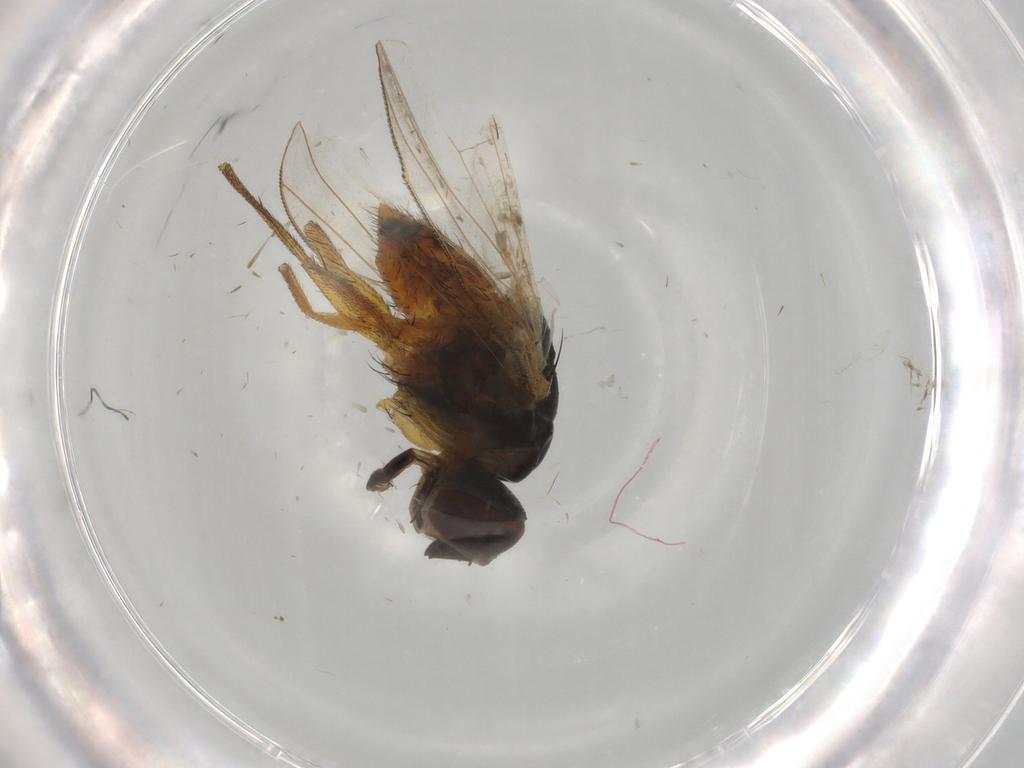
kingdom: Animalia
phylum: Arthropoda
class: Insecta
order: Diptera
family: Muscidae
